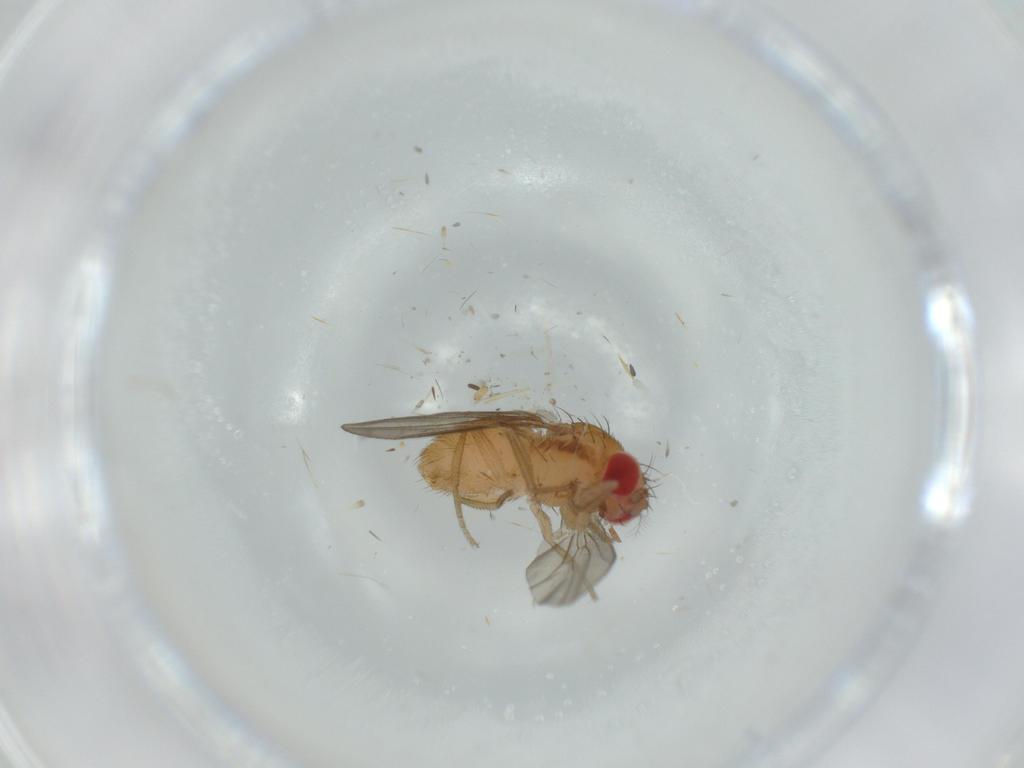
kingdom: Animalia
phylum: Arthropoda
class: Insecta
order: Diptera
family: Drosophilidae
